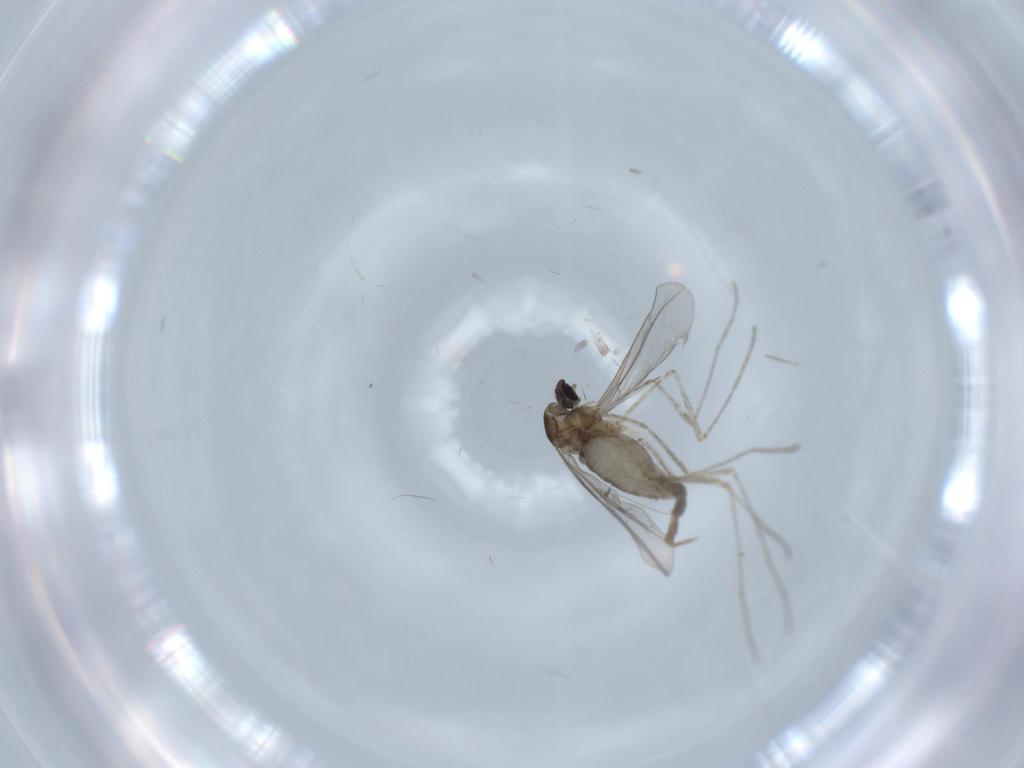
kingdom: Animalia
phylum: Arthropoda
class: Insecta
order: Diptera
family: Cecidomyiidae
